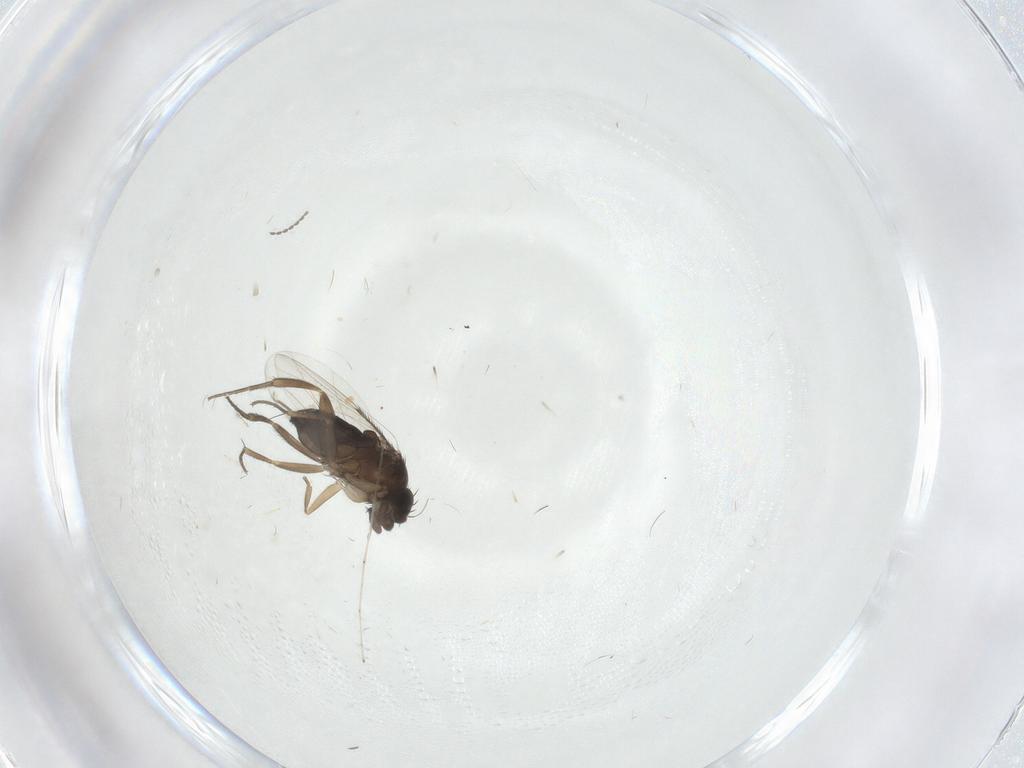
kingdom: Animalia
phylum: Arthropoda
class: Insecta
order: Diptera
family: Cecidomyiidae
